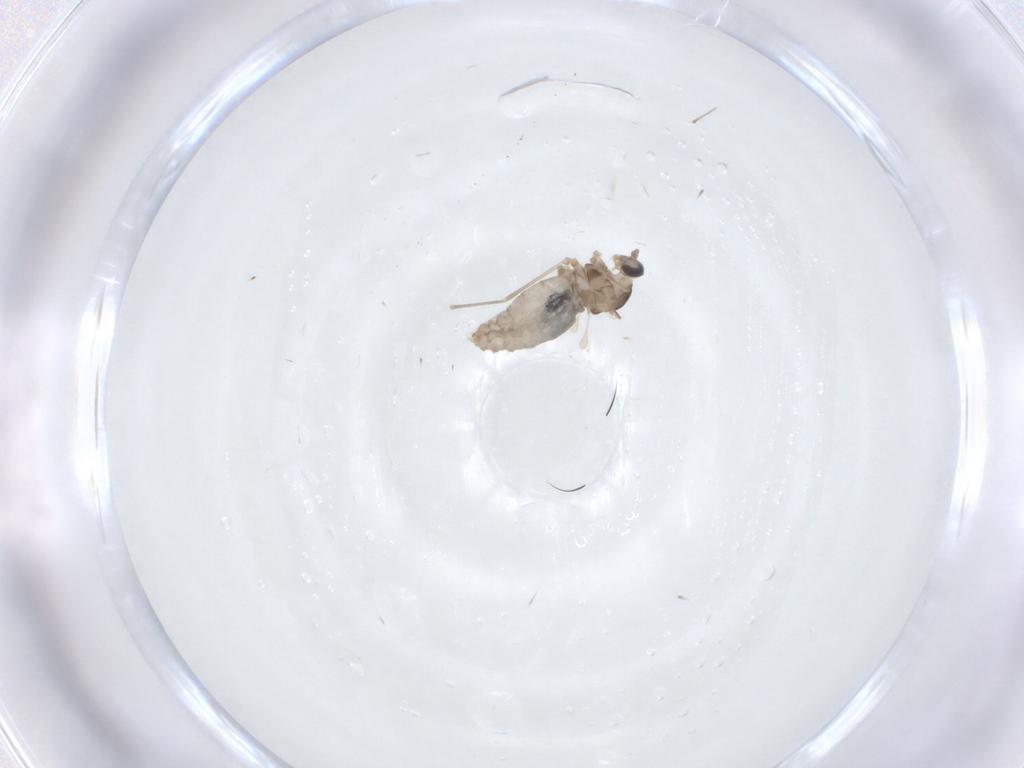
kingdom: Animalia
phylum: Arthropoda
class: Insecta
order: Diptera
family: Cecidomyiidae
